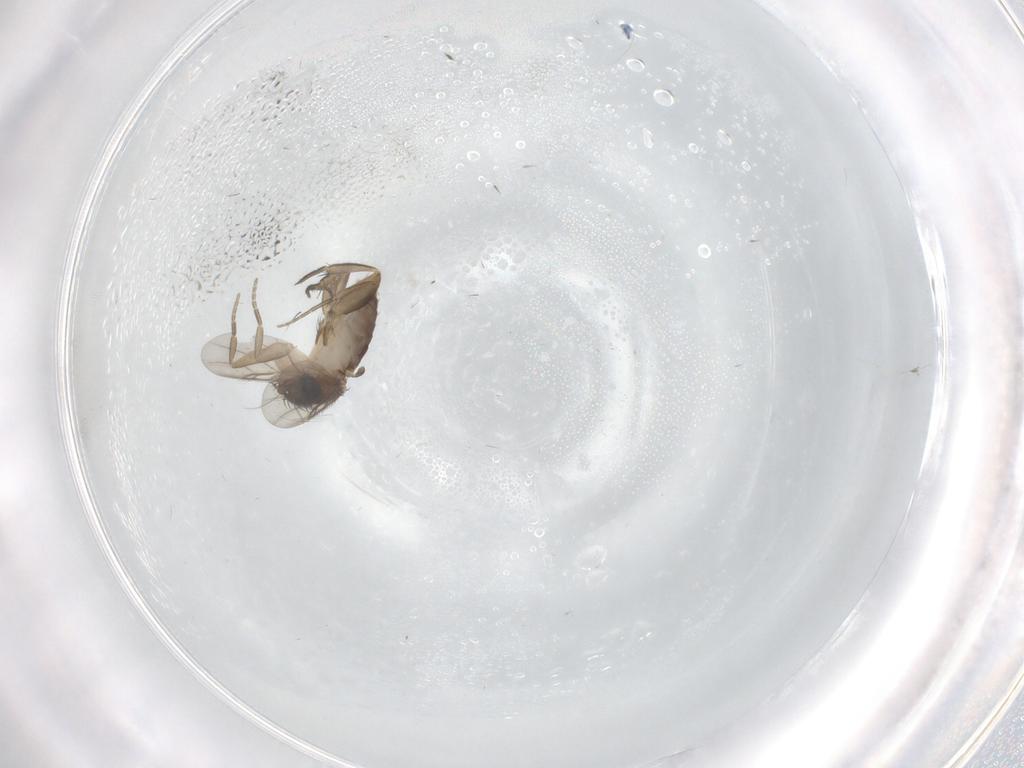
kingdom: Animalia
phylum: Arthropoda
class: Insecta
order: Diptera
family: Phoridae
